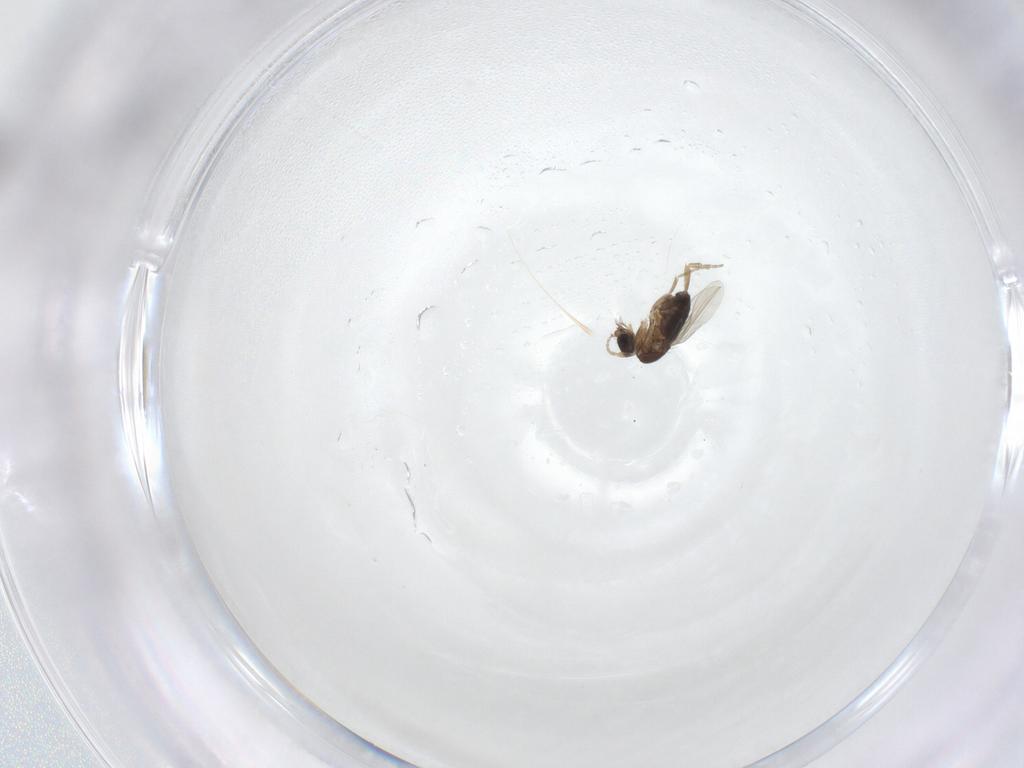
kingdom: Animalia
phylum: Arthropoda
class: Insecta
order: Diptera
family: Phoridae
